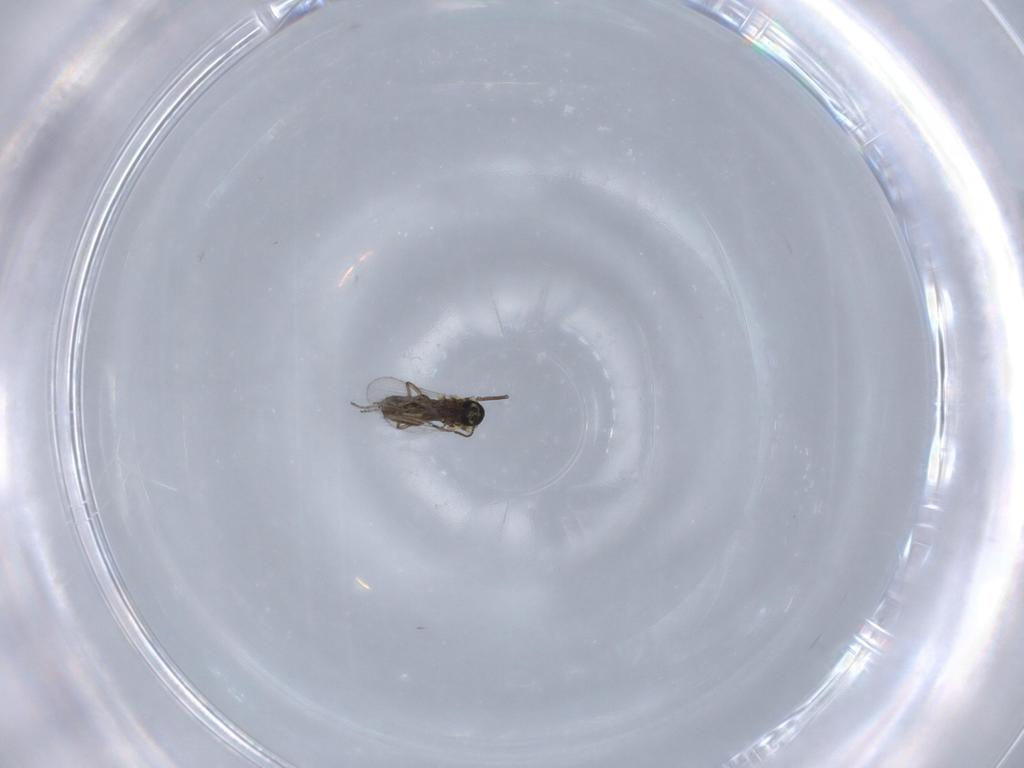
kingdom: Animalia
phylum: Arthropoda
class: Insecta
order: Diptera
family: Ceratopogonidae
